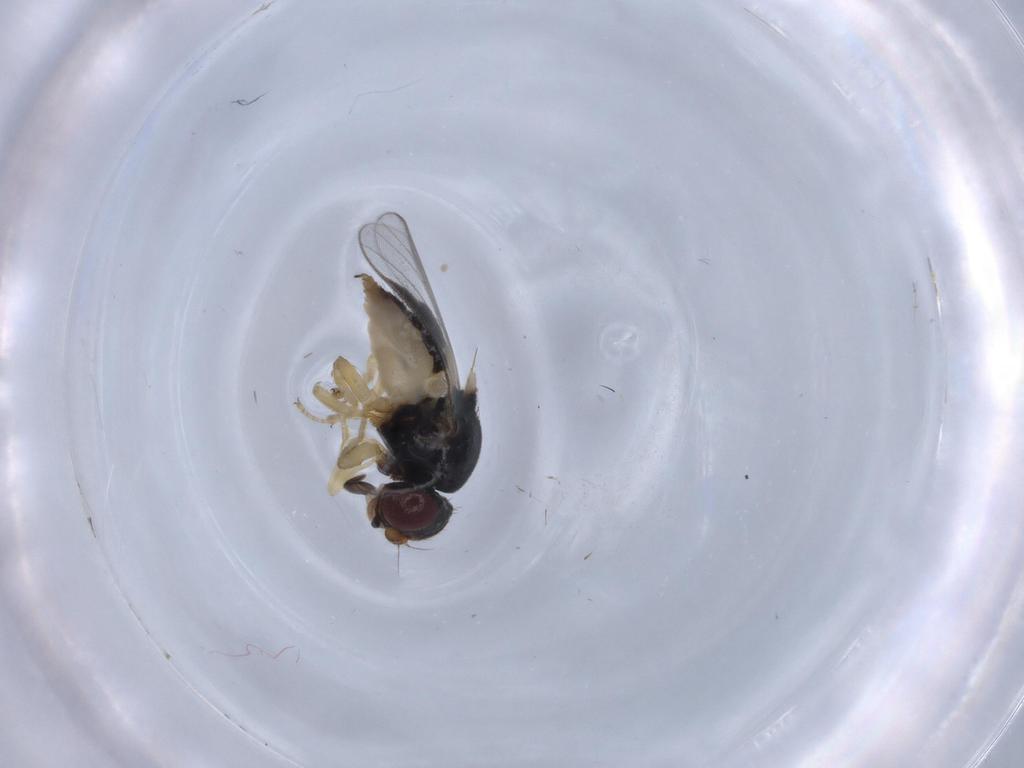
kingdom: Animalia
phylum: Arthropoda
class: Insecta
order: Diptera
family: Chloropidae
